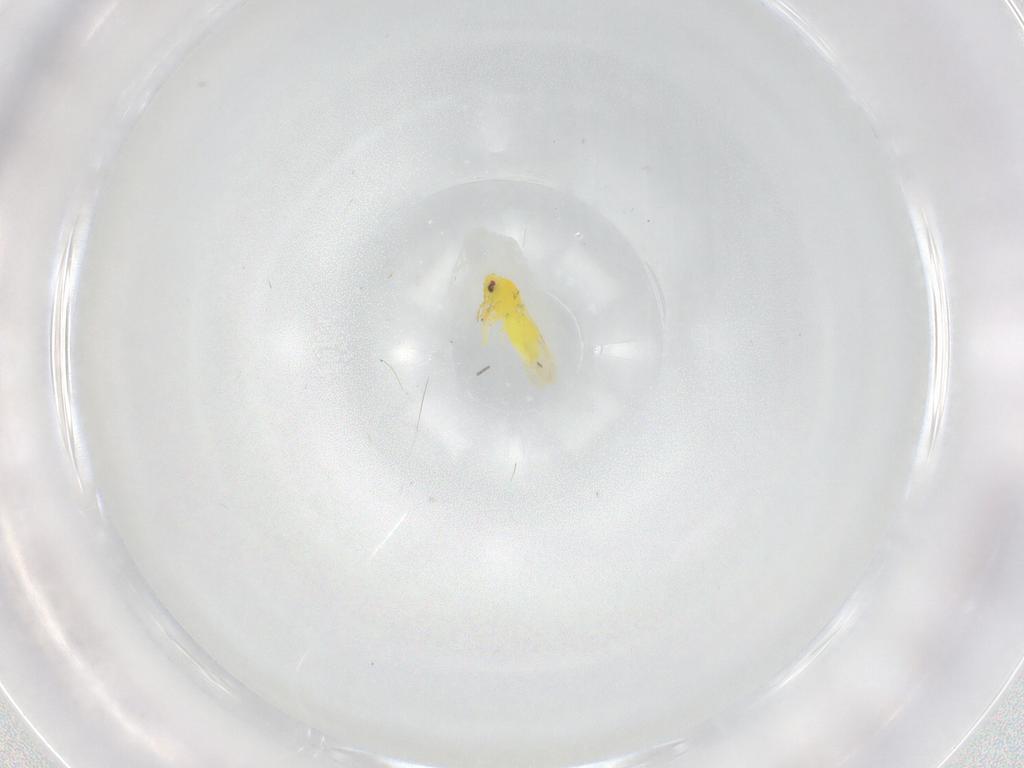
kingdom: Animalia
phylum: Arthropoda
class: Insecta
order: Hemiptera
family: Aleyrodidae
